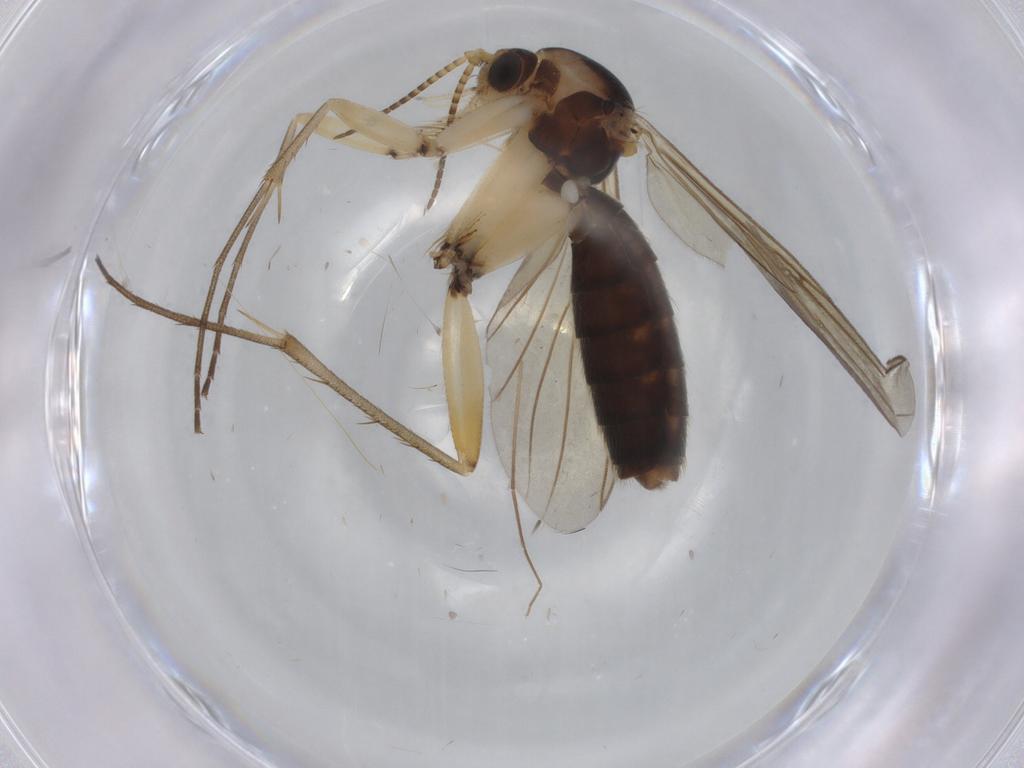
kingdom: Animalia
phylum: Arthropoda
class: Insecta
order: Diptera
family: Mycetophilidae
